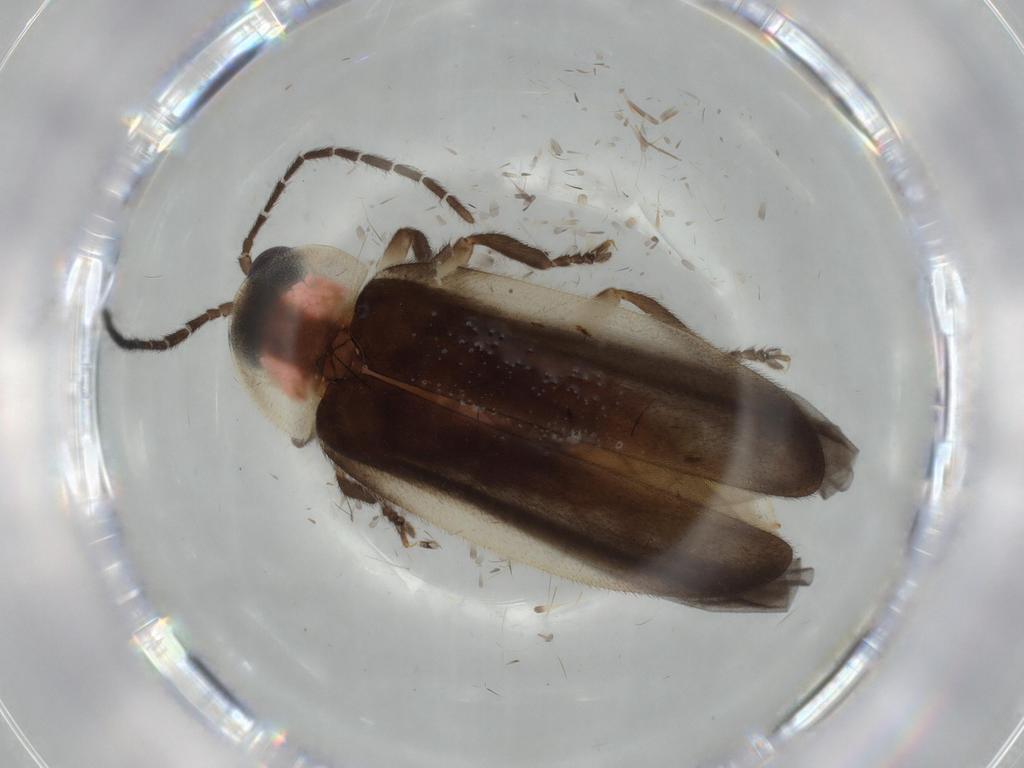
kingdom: Animalia
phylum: Arthropoda
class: Insecta
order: Coleoptera
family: Lampyridae
